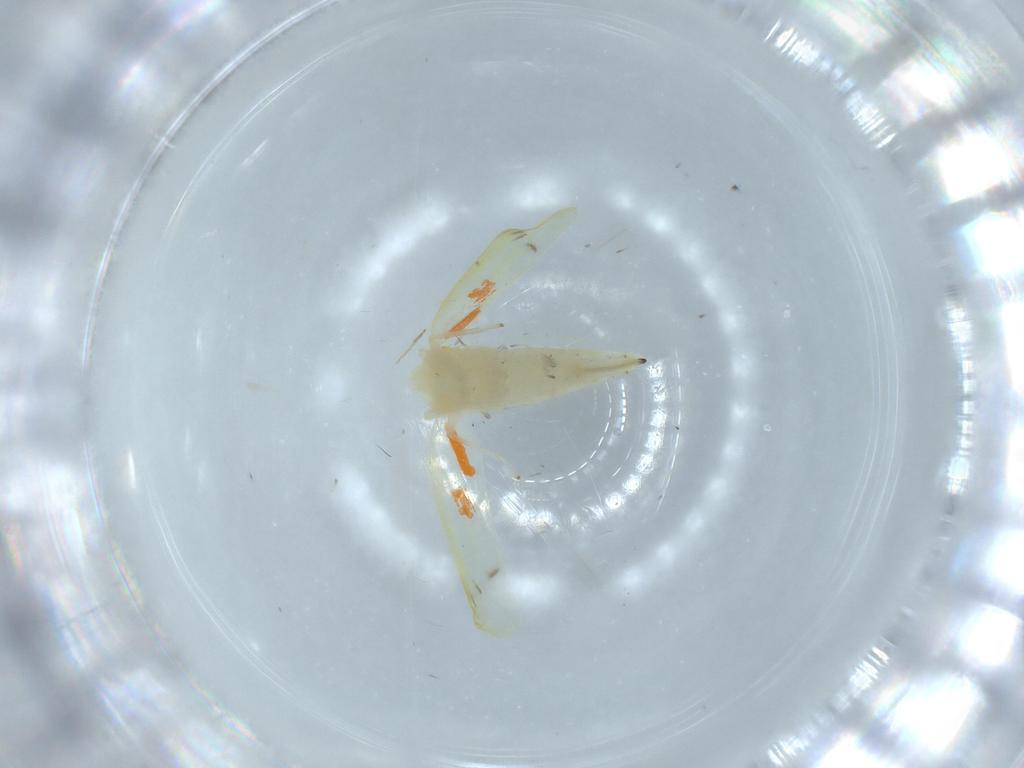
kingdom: Animalia
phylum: Arthropoda
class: Insecta
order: Hemiptera
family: Cicadellidae
